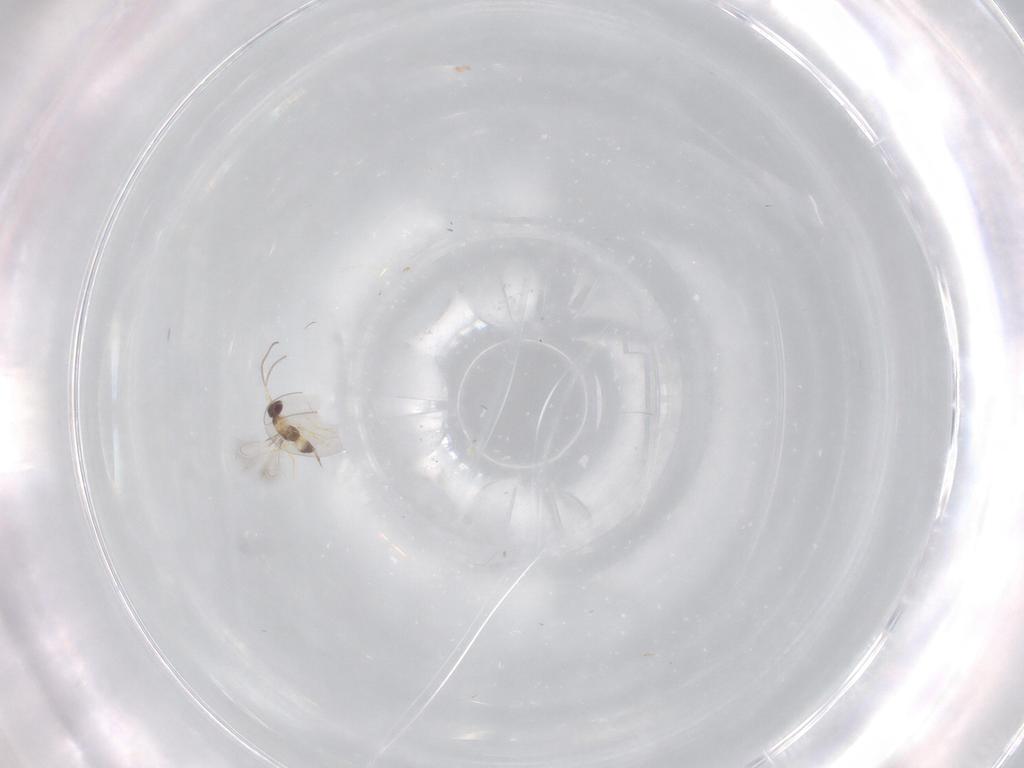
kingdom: Animalia
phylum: Arthropoda
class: Insecta
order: Hymenoptera
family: Mymaridae
